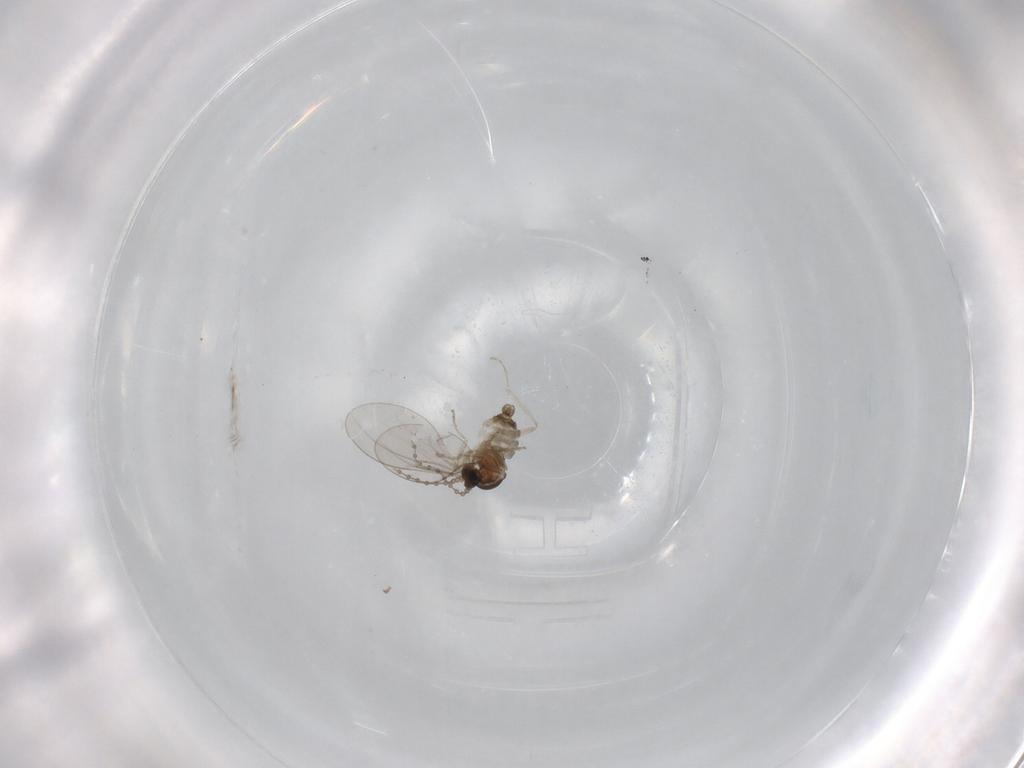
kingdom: Animalia
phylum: Arthropoda
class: Insecta
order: Diptera
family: Cecidomyiidae
